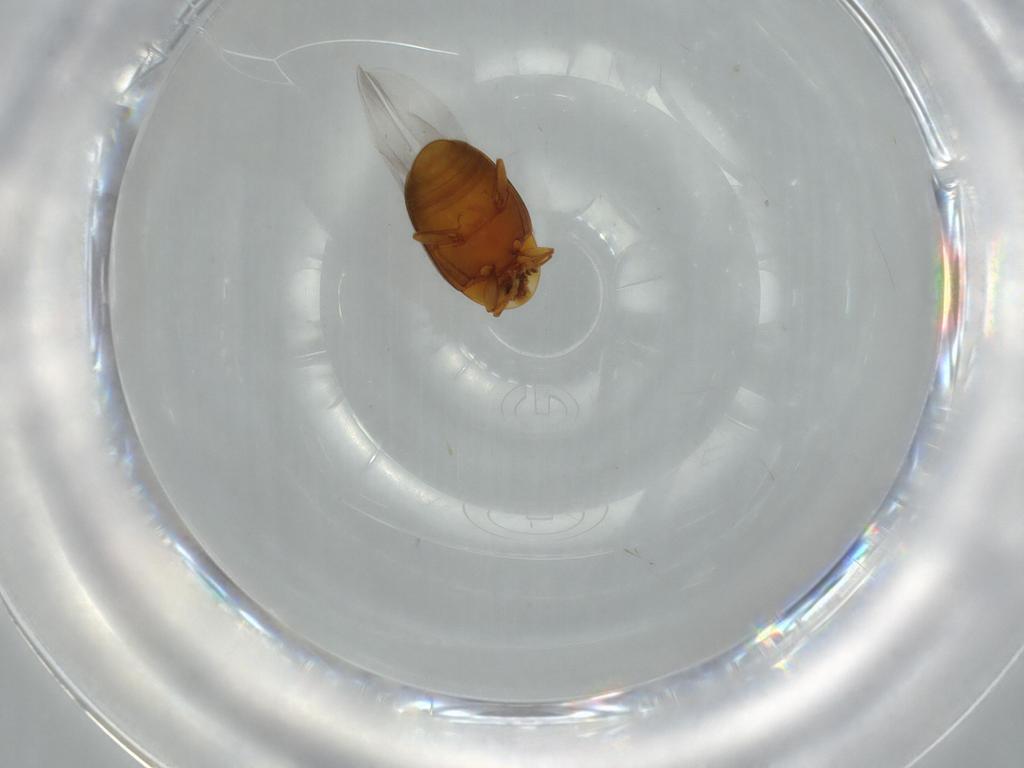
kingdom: Animalia
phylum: Arthropoda
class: Insecta
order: Coleoptera
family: Corylophidae
